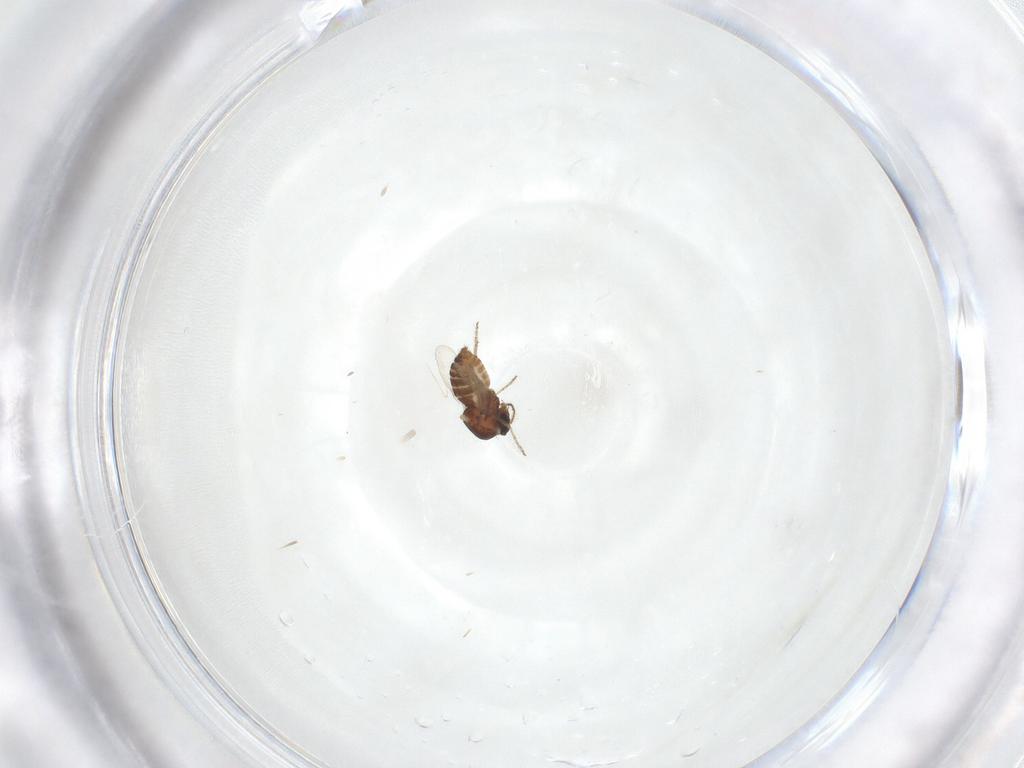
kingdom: Animalia
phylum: Arthropoda
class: Insecta
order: Diptera
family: Ceratopogonidae
